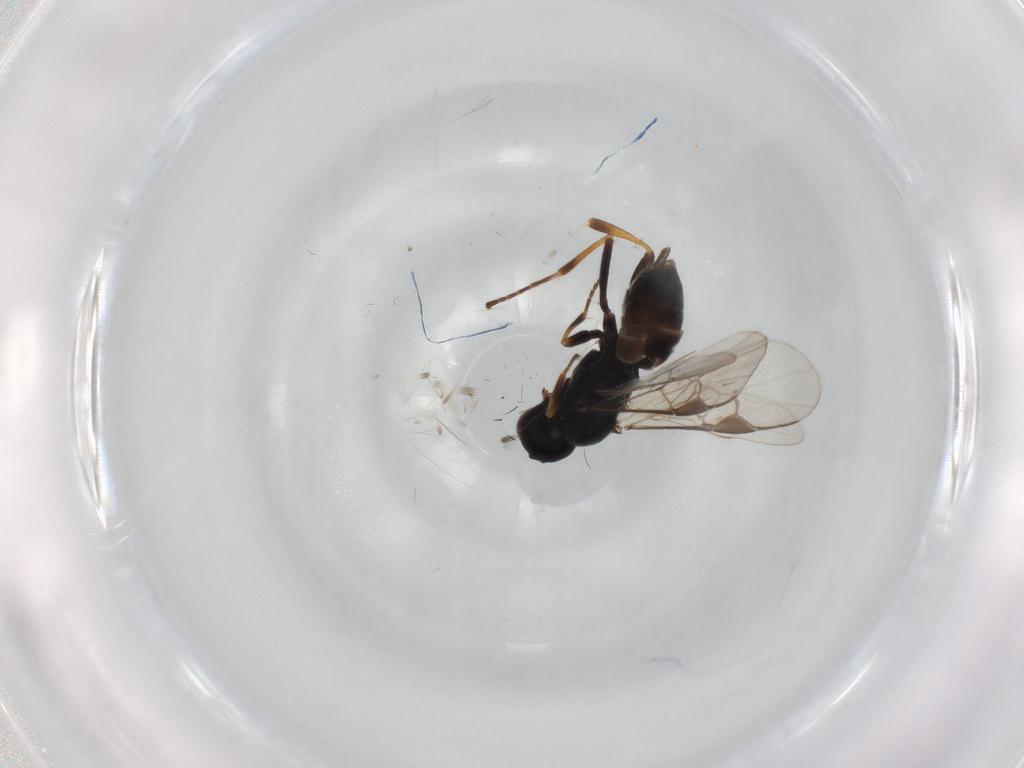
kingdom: Animalia
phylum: Arthropoda
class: Insecta
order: Hymenoptera
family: Braconidae
